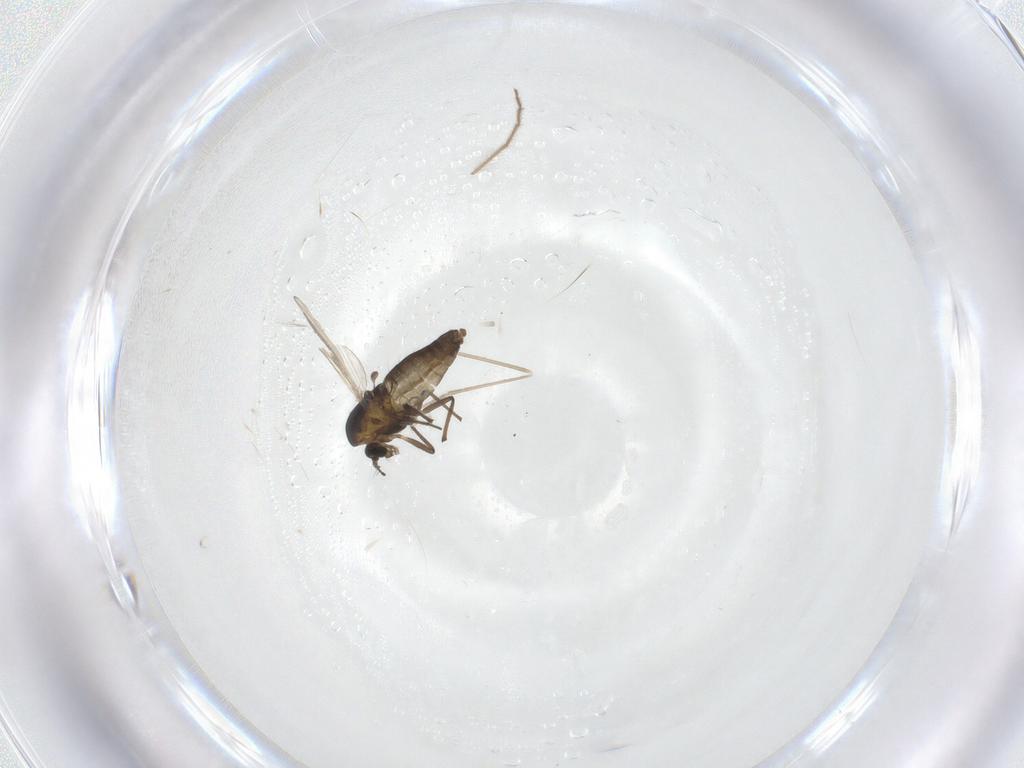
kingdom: Animalia
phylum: Arthropoda
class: Insecta
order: Diptera
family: Chironomidae
